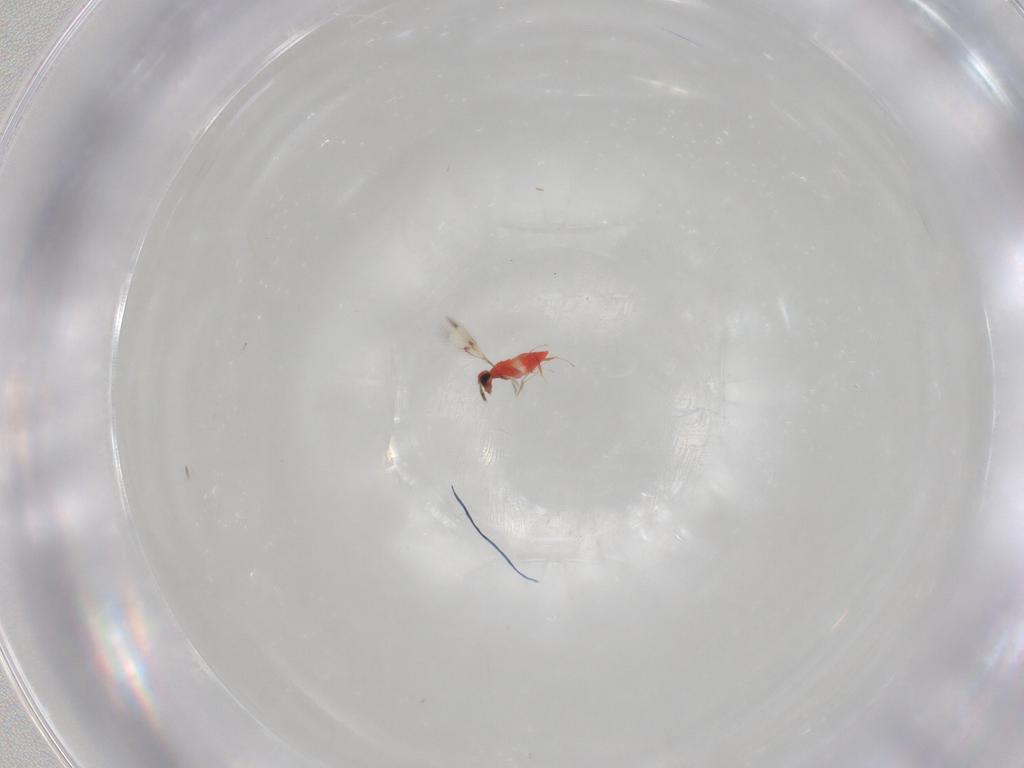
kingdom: Animalia
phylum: Arthropoda
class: Insecta
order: Hymenoptera
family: Trichogrammatidae
